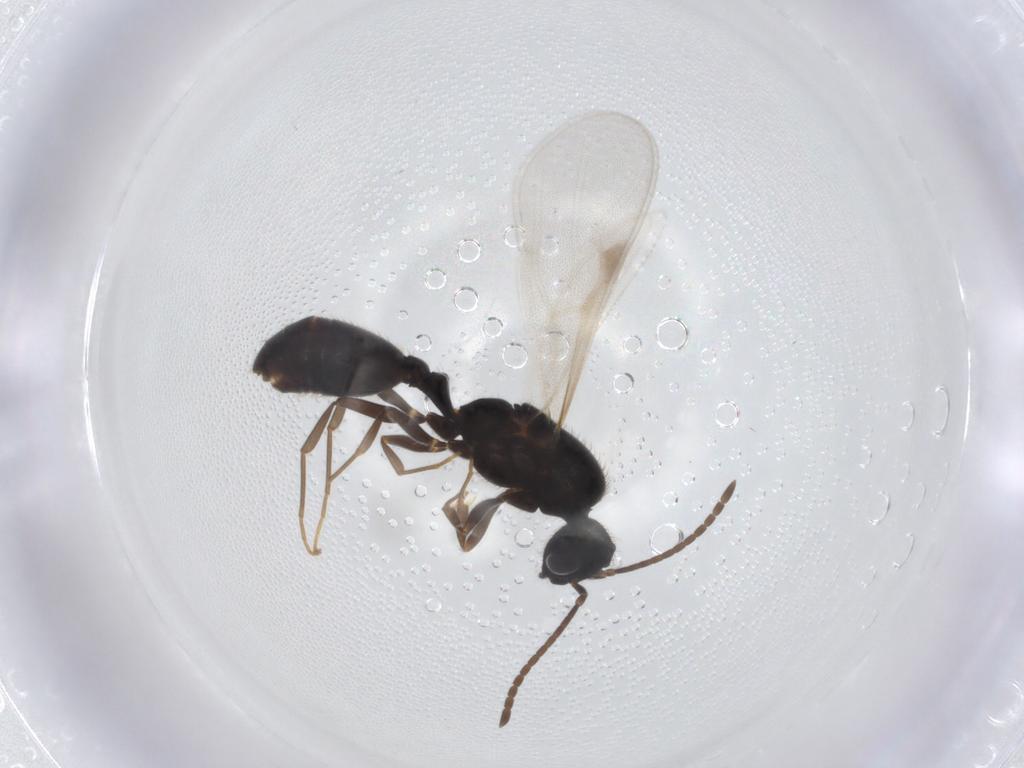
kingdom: Animalia
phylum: Arthropoda
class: Insecta
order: Hymenoptera
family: Formicidae
